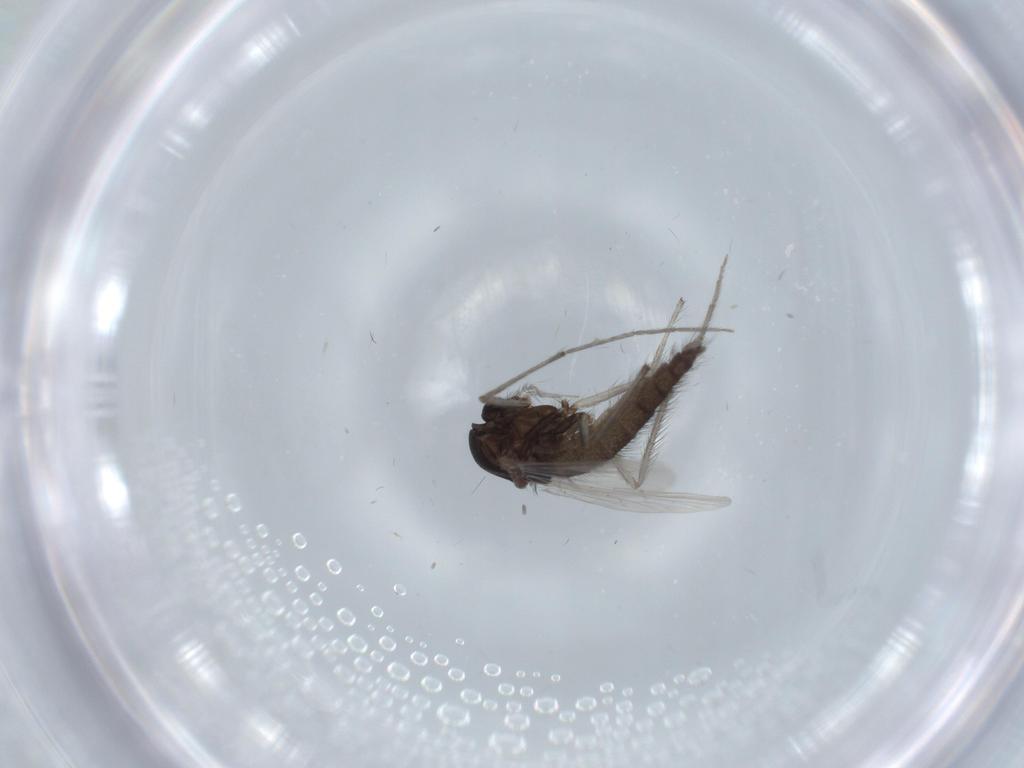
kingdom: Animalia
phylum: Arthropoda
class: Insecta
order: Diptera
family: Chironomidae
